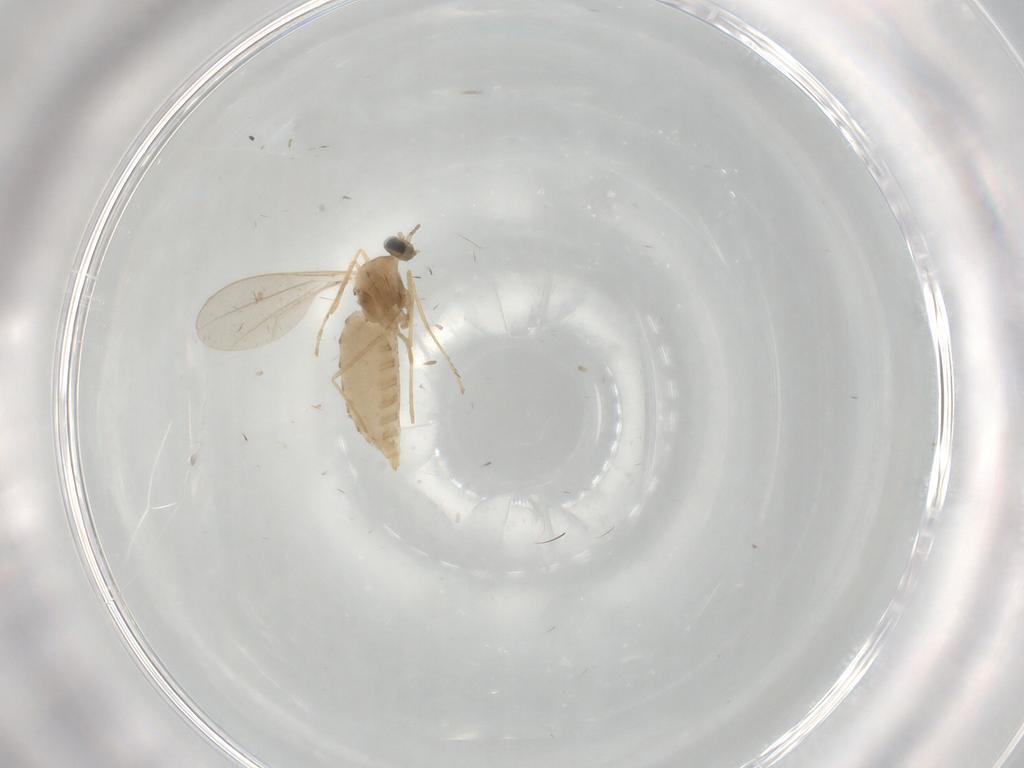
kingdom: Animalia
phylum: Arthropoda
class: Insecta
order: Diptera
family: Cecidomyiidae
